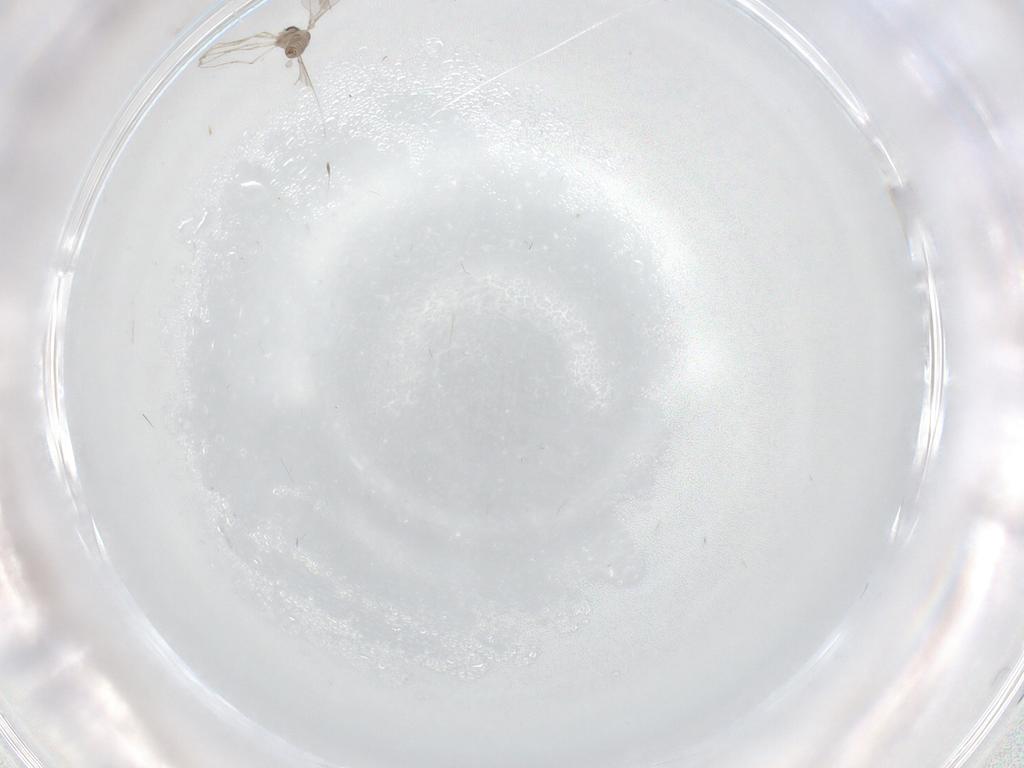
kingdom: Animalia
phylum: Arthropoda
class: Insecta
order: Diptera
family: Cecidomyiidae
